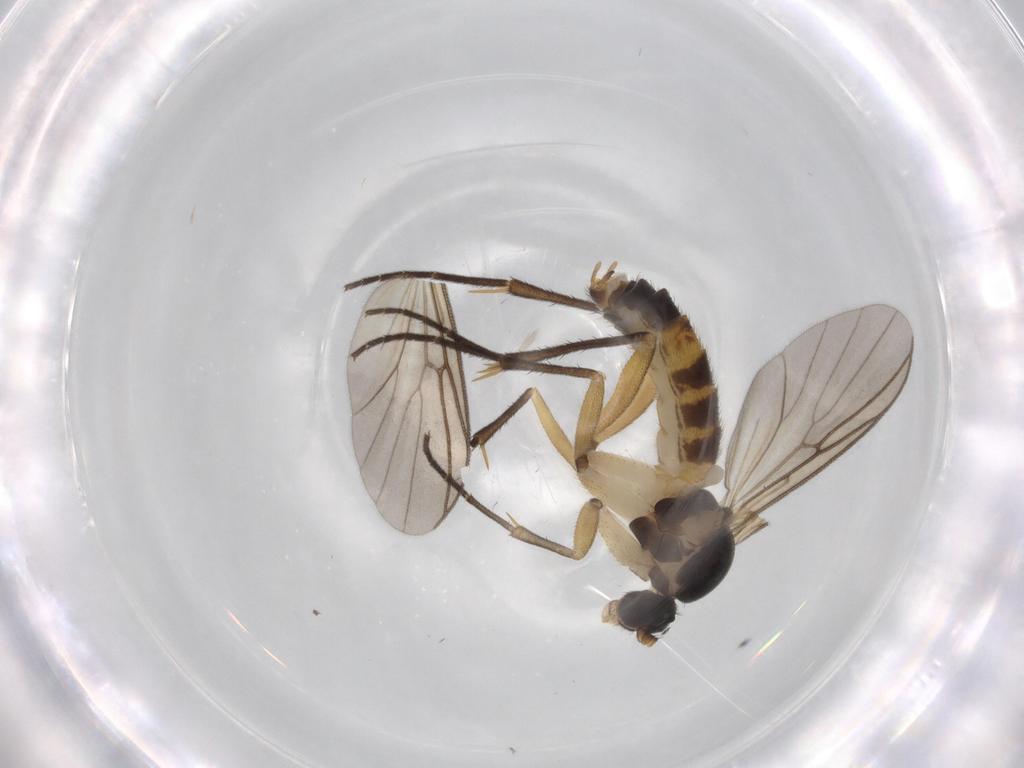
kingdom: Animalia
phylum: Arthropoda
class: Insecta
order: Diptera
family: Mycetophilidae
